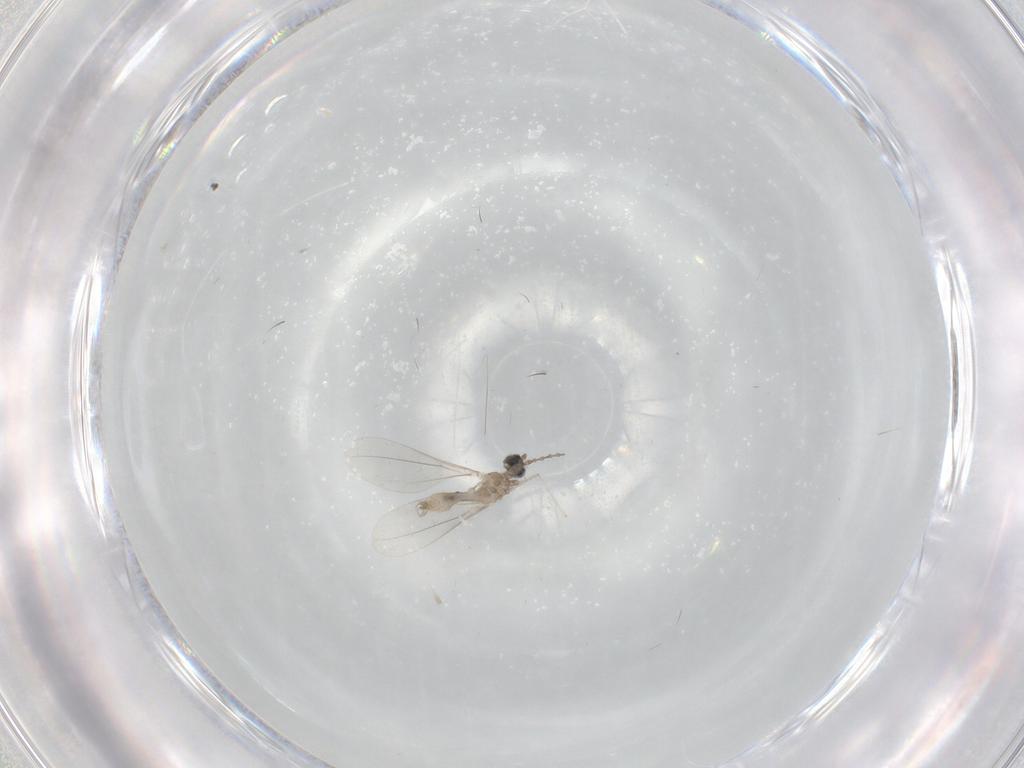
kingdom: Animalia
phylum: Arthropoda
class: Insecta
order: Diptera
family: Cecidomyiidae
